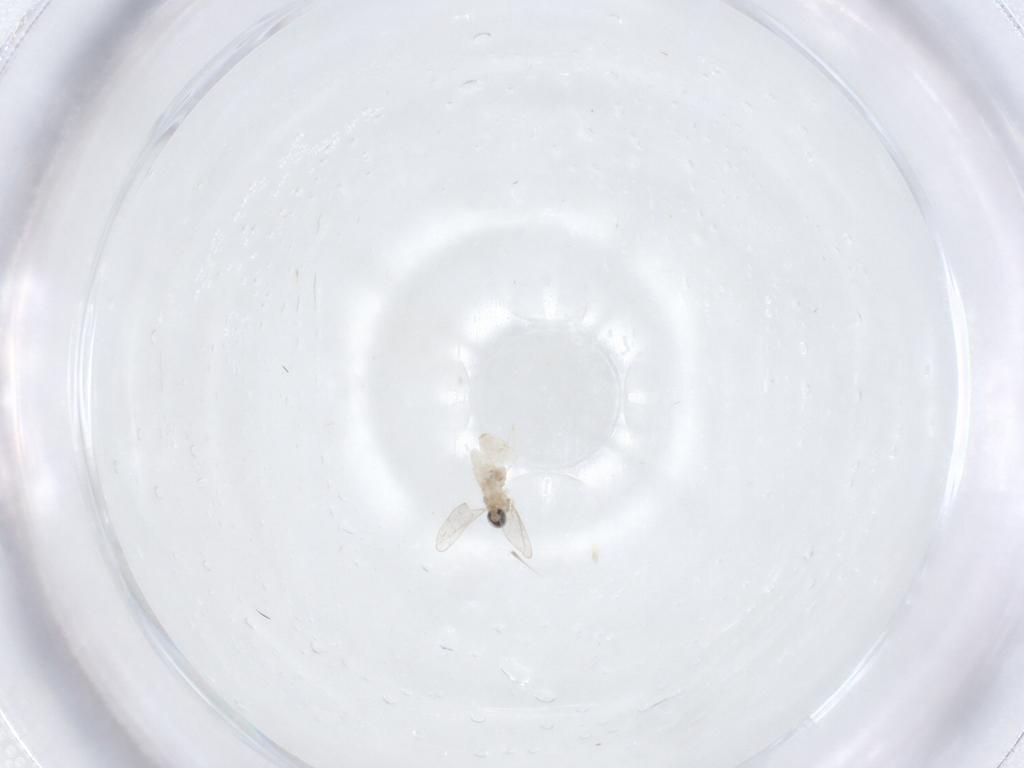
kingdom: Animalia
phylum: Arthropoda
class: Insecta
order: Diptera
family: Cecidomyiidae
